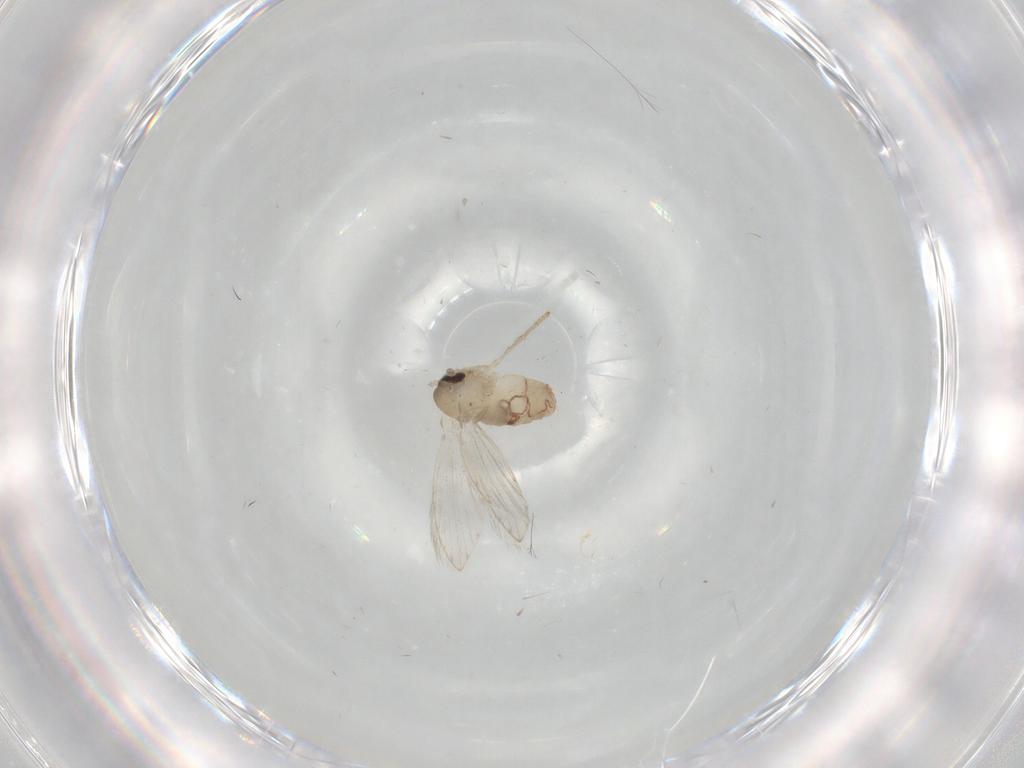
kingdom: Animalia
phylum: Arthropoda
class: Insecta
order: Diptera
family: Psychodidae
